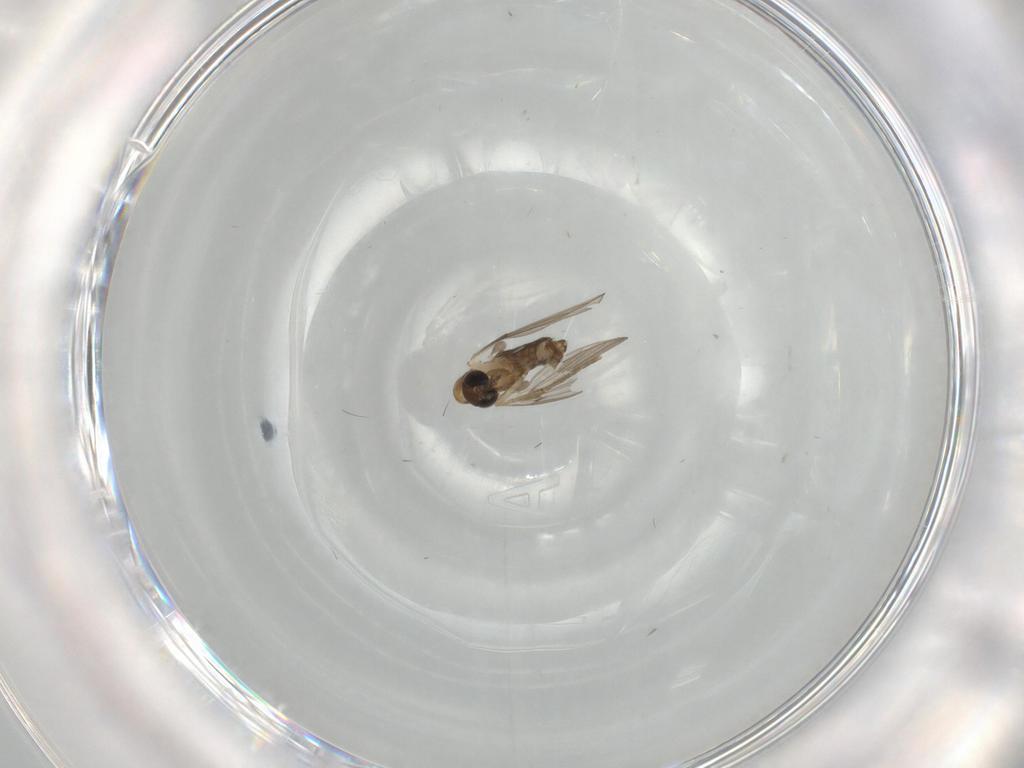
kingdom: Animalia
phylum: Arthropoda
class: Insecta
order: Diptera
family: Psychodidae
